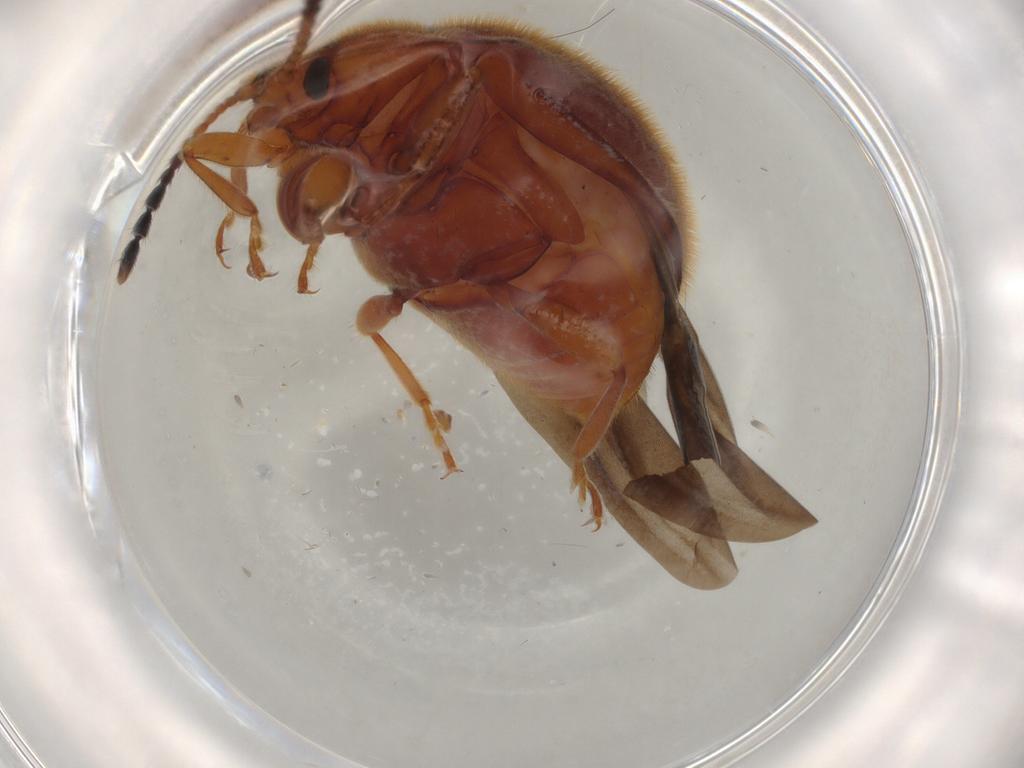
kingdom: Animalia
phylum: Arthropoda
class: Insecta
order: Coleoptera
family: Endomychidae
